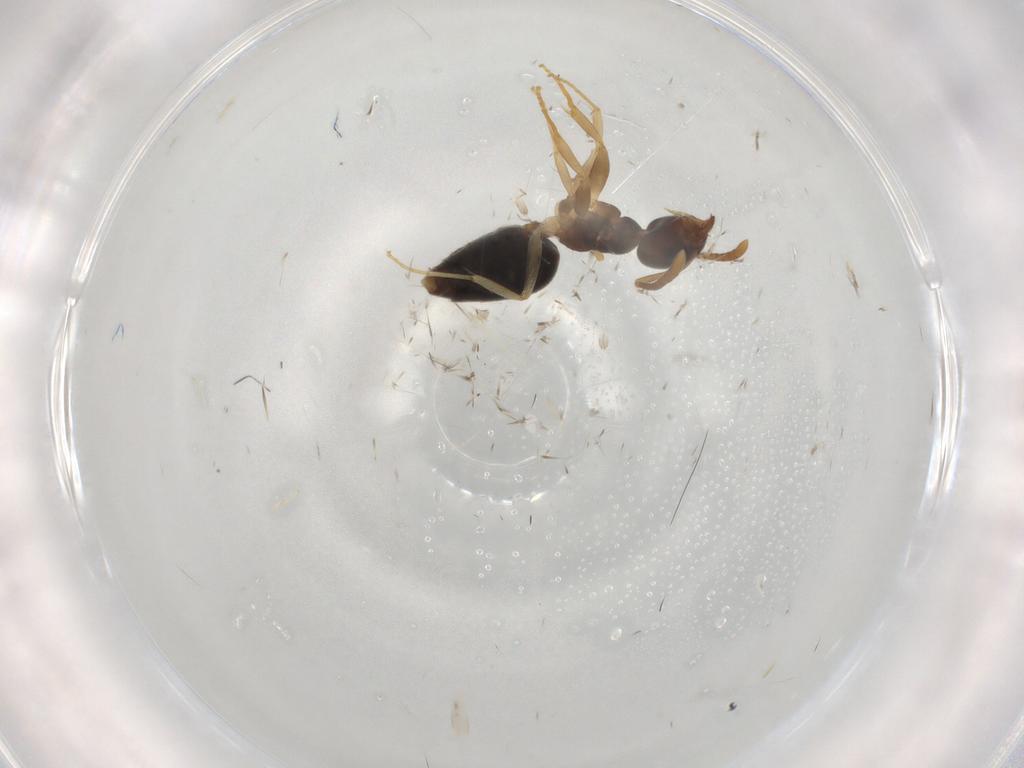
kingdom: Animalia
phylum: Arthropoda
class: Insecta
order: Hymenoptera
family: Formicidae
